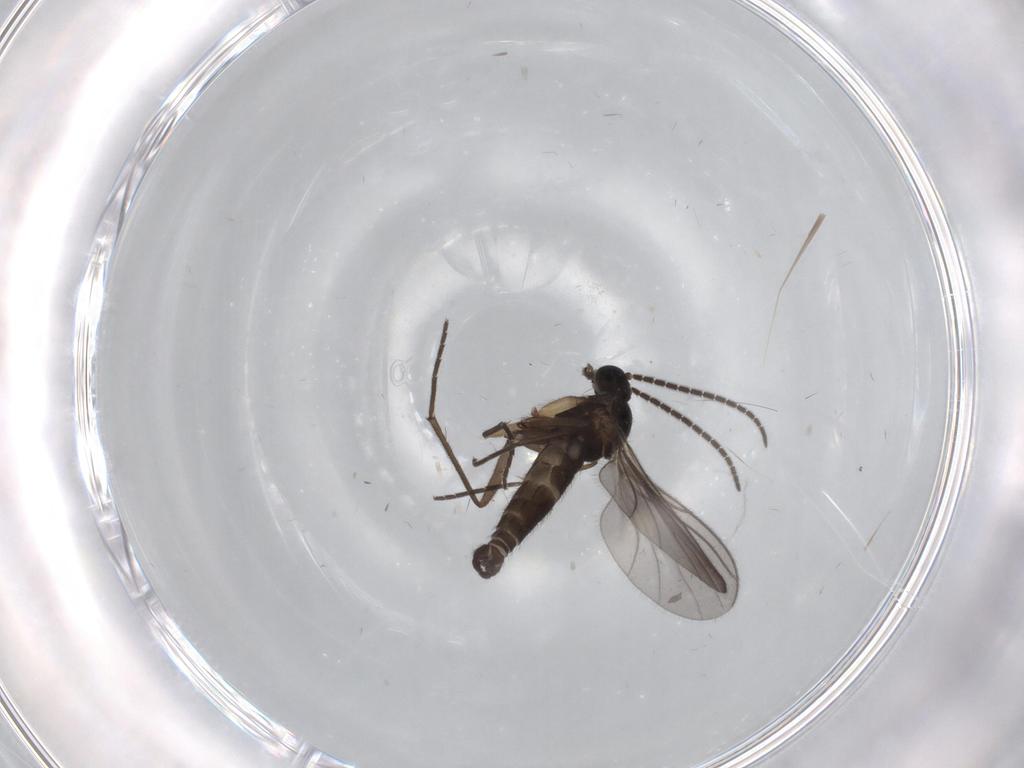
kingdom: Animalia
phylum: Arthropoda
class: Insecta
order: Diptera
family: Sciaridae
